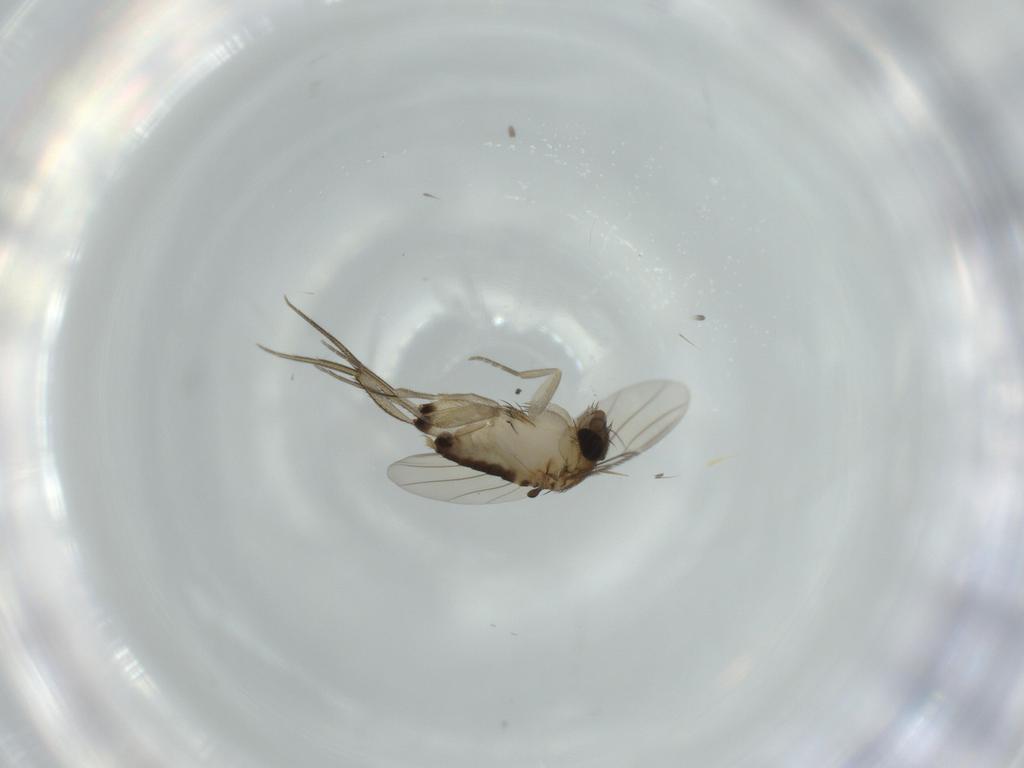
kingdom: Animalia
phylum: Arthropoda
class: Insecta
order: Diptera
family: Phoridae
